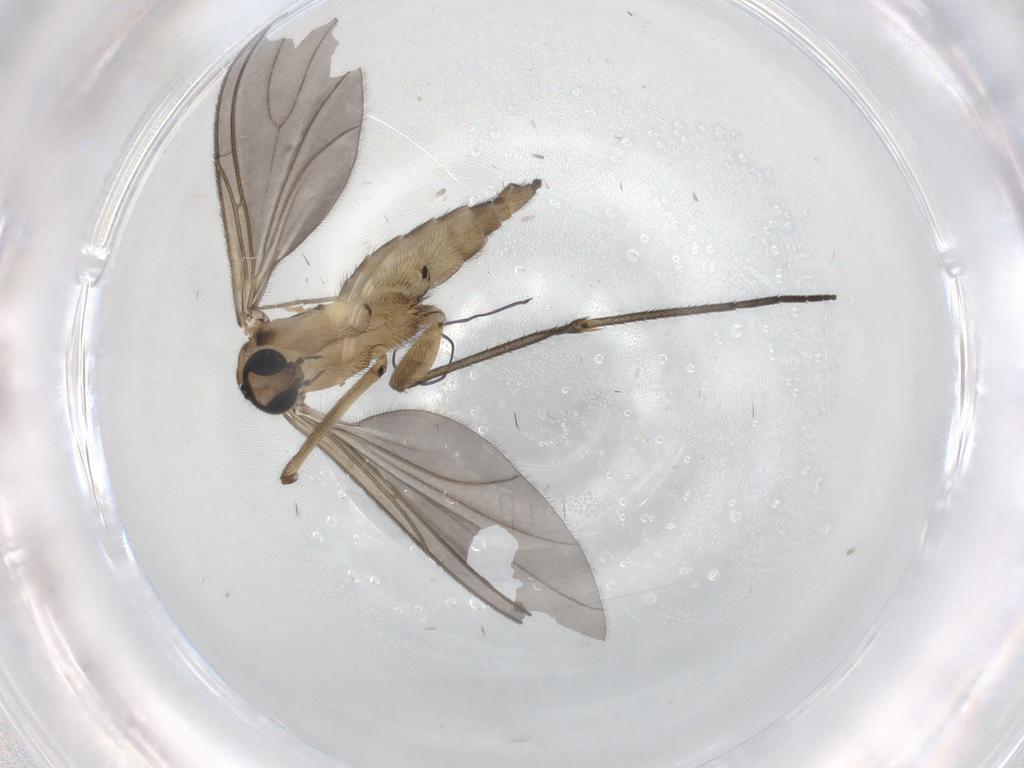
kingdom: Animalia
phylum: Arthropoda
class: Insecta
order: Diptera
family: Sciaridae
